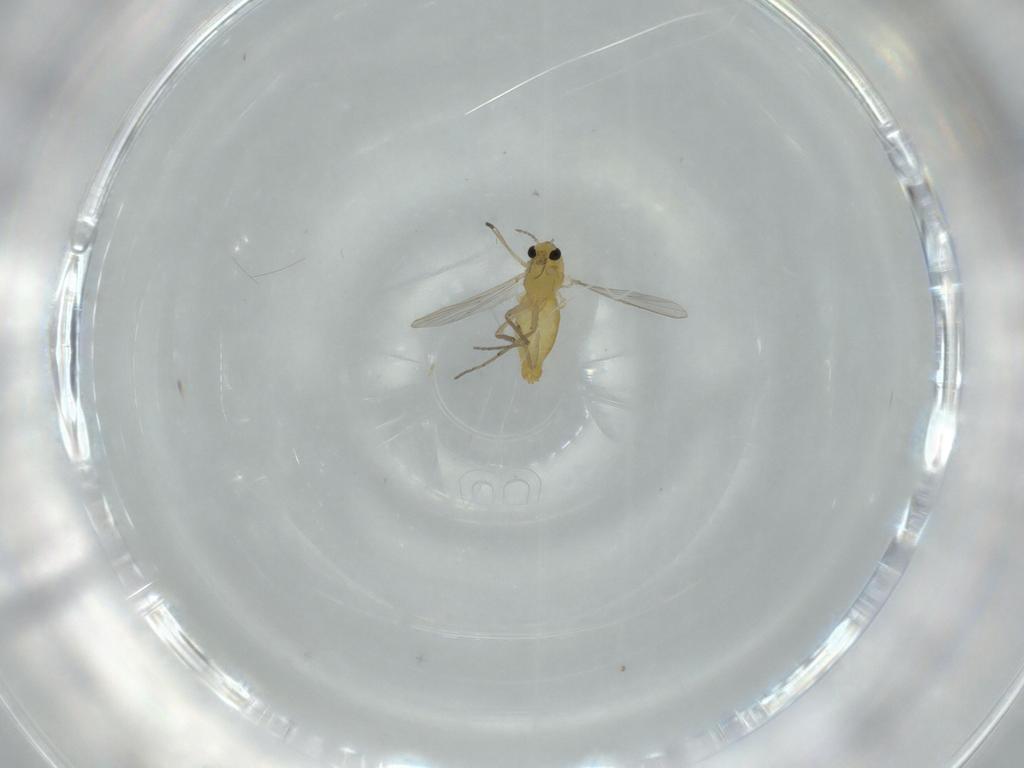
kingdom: Animalia
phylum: Arthropoda
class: Insecta
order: Diptera
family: Chironomidae
